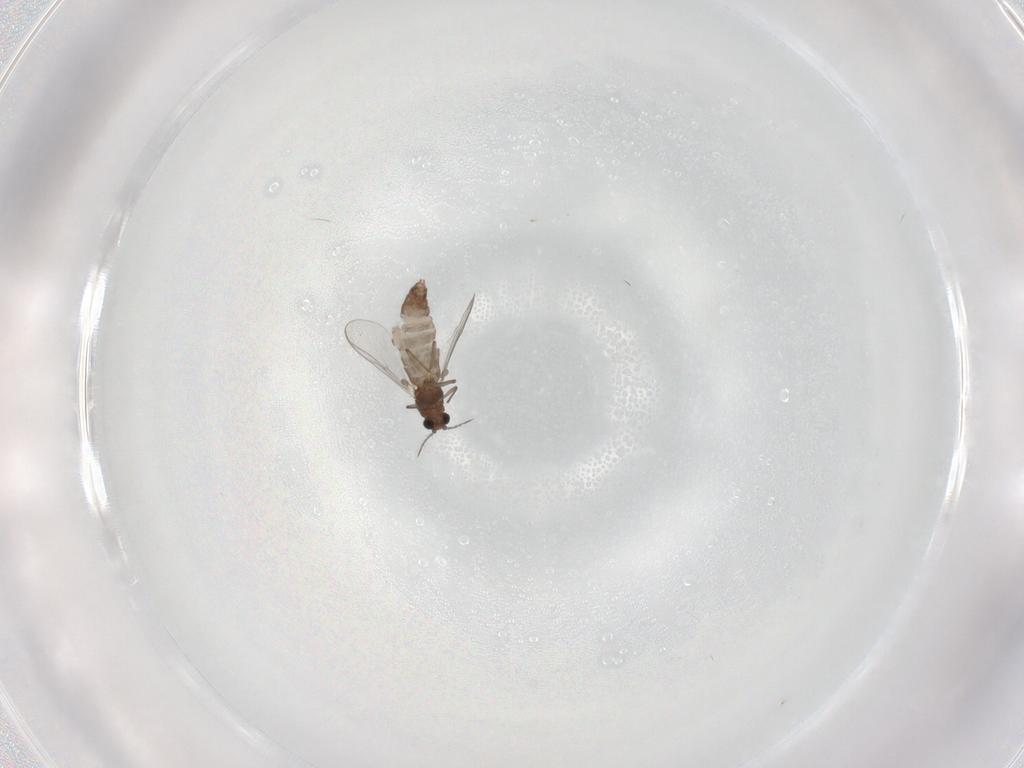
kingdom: Animalia
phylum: Arthropoda
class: Insecta
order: Diptera
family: Chironomidae
